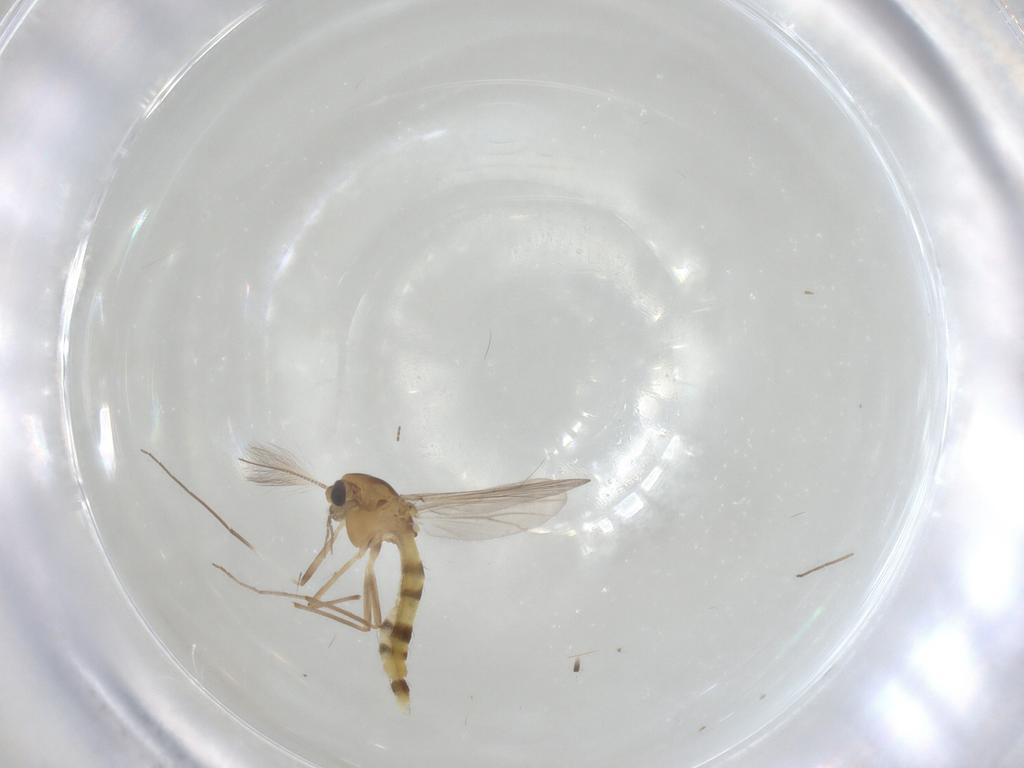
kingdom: Animalia
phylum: Arthropoda
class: Insecta
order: Diptera
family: Chironomidae
